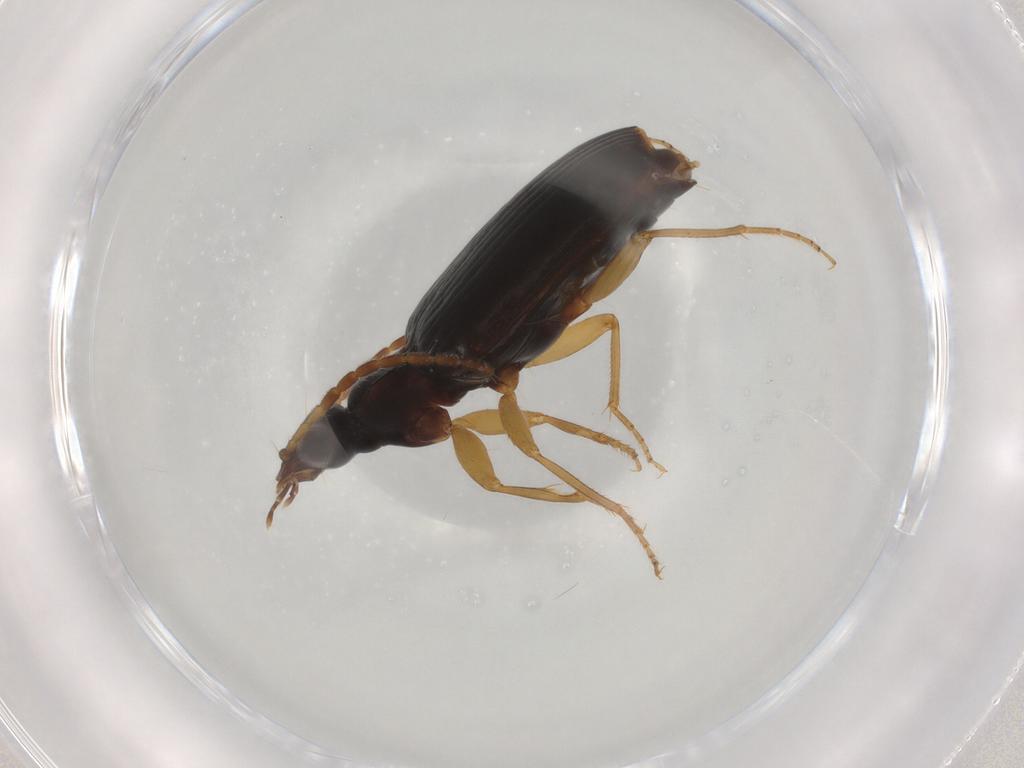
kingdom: Animalia
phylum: Arthropoda
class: Insecta
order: Coleoptera
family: Carabidae
